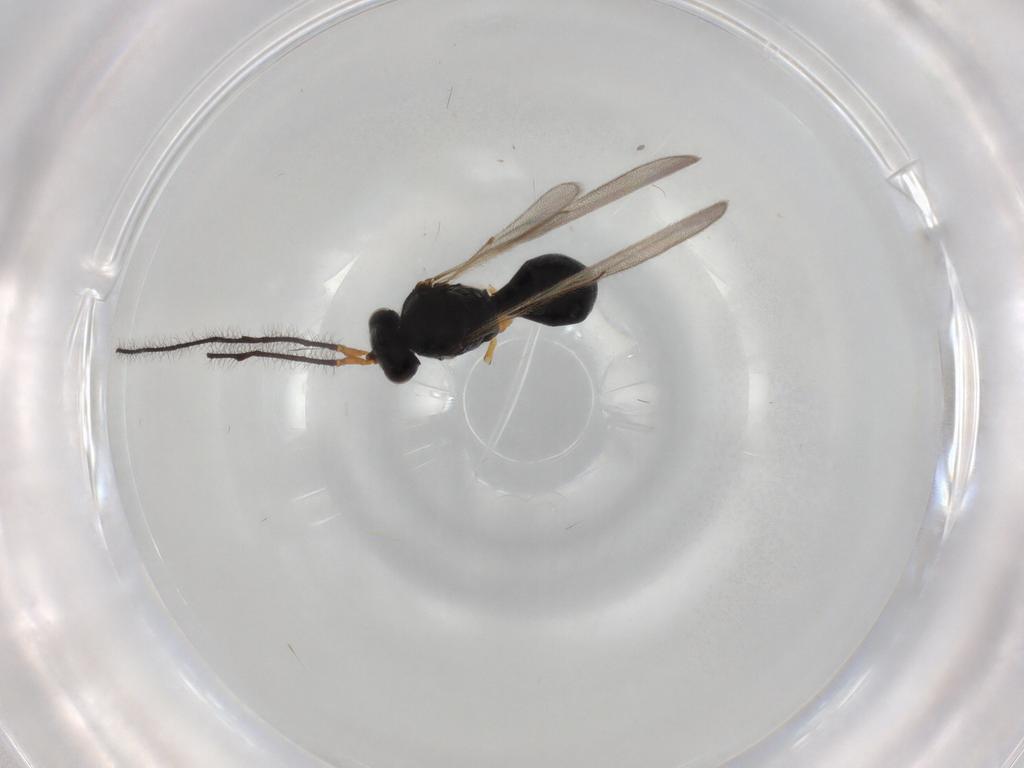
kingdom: Animalia
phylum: Arthropoda
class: Insecta
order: Hymenoptera
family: Scelionidae
